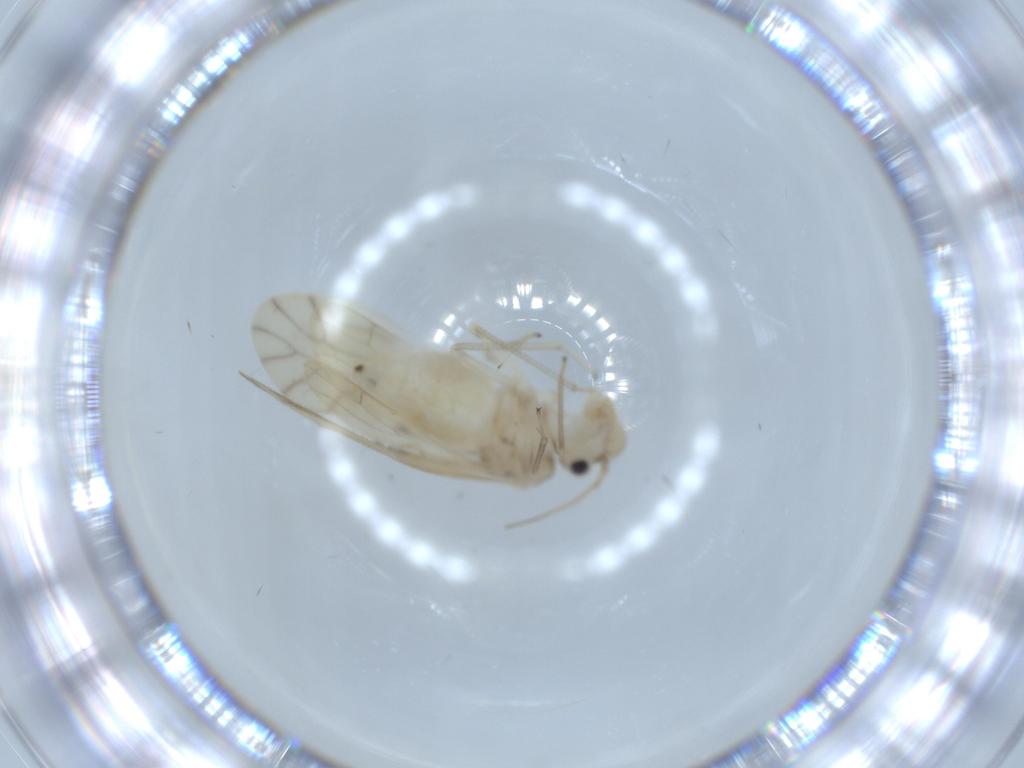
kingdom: Animalia
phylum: Arthropoda
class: Insecta
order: Psocodea
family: Caeciliusidae
